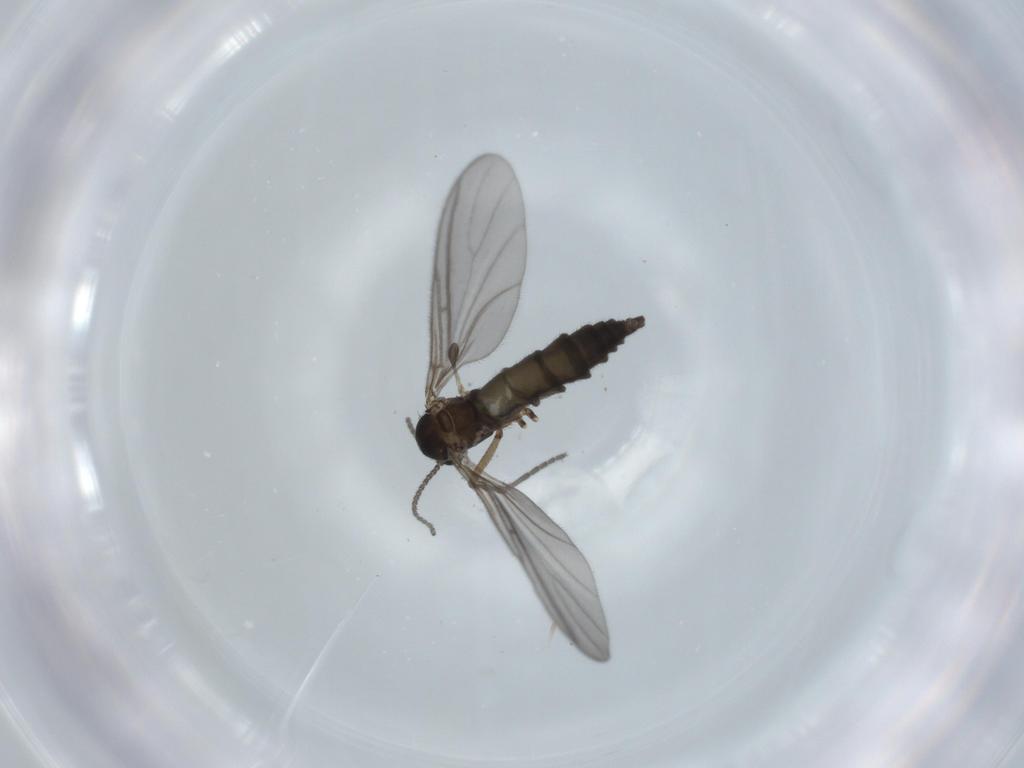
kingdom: Animalia
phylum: Arthropoda
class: Insecta
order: Diptera
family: Sciaridae
